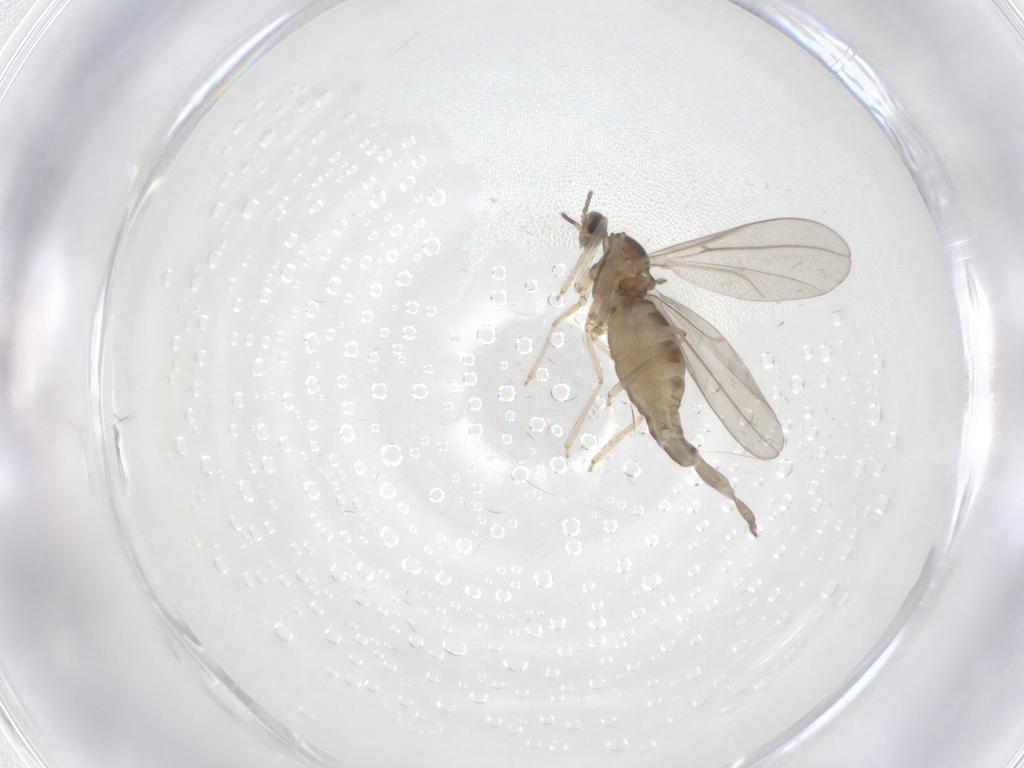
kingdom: Animalia
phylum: Arthropoda
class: Insecta
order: Diptera
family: Cecidomyiidae
